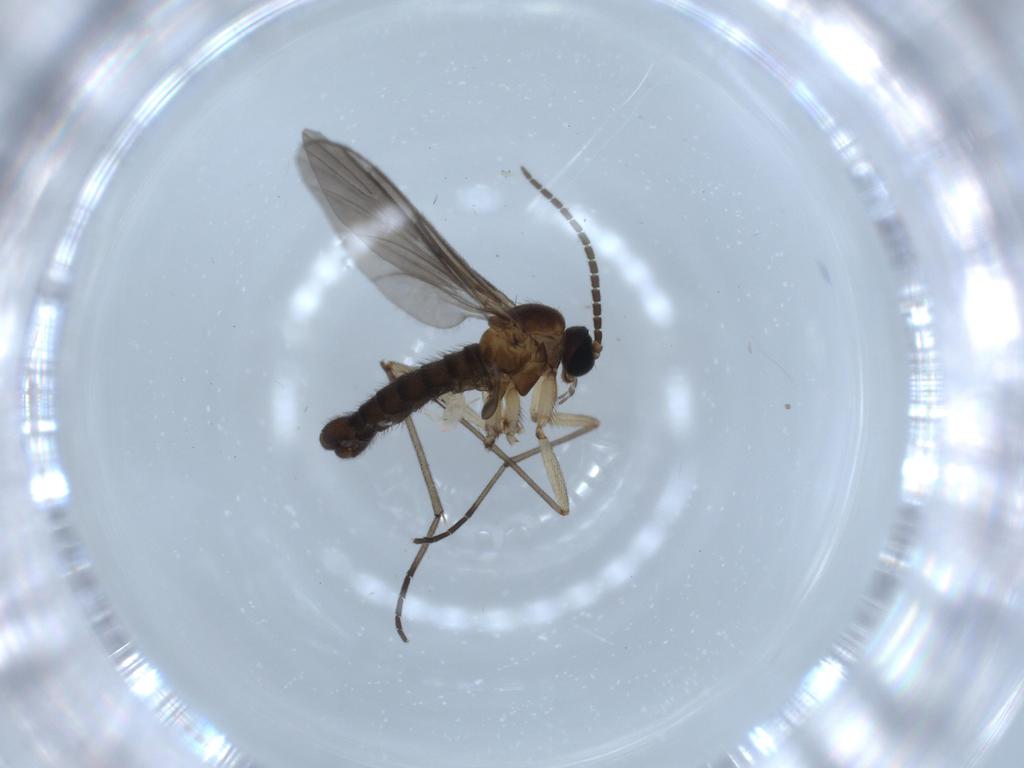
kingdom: Animalia
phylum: Arthropoda
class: Insecta
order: Diptera
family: Sciaridae
